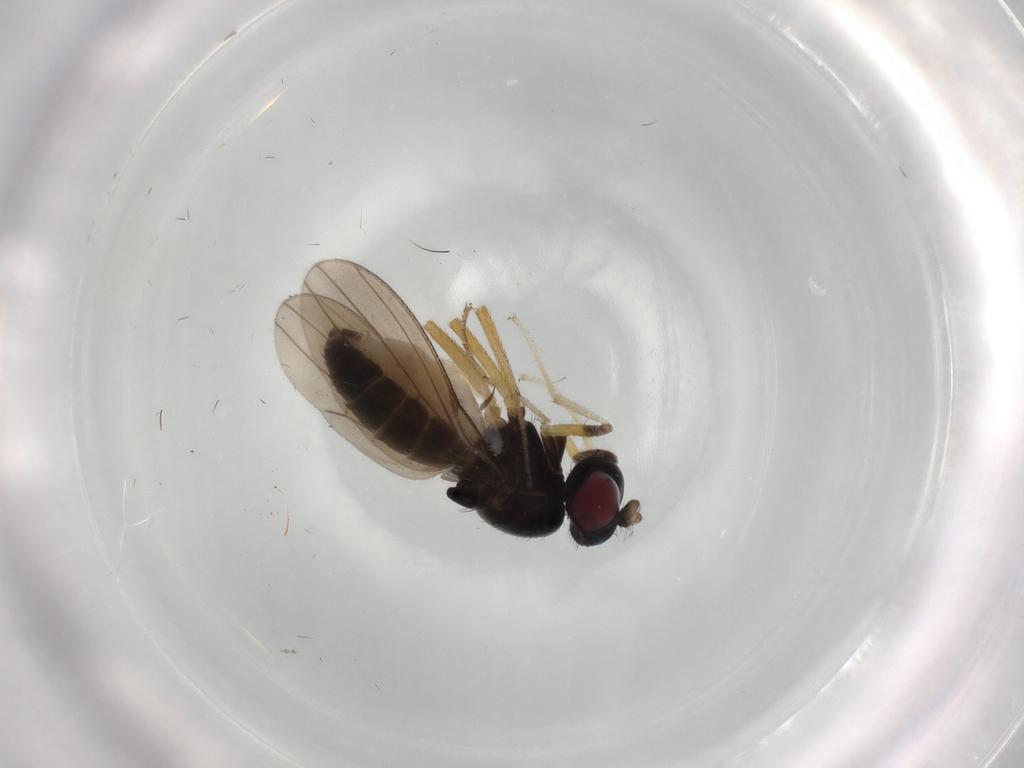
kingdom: Animalia
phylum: Arthropoda
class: Insecta
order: Diptera
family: Lauxaniidae
